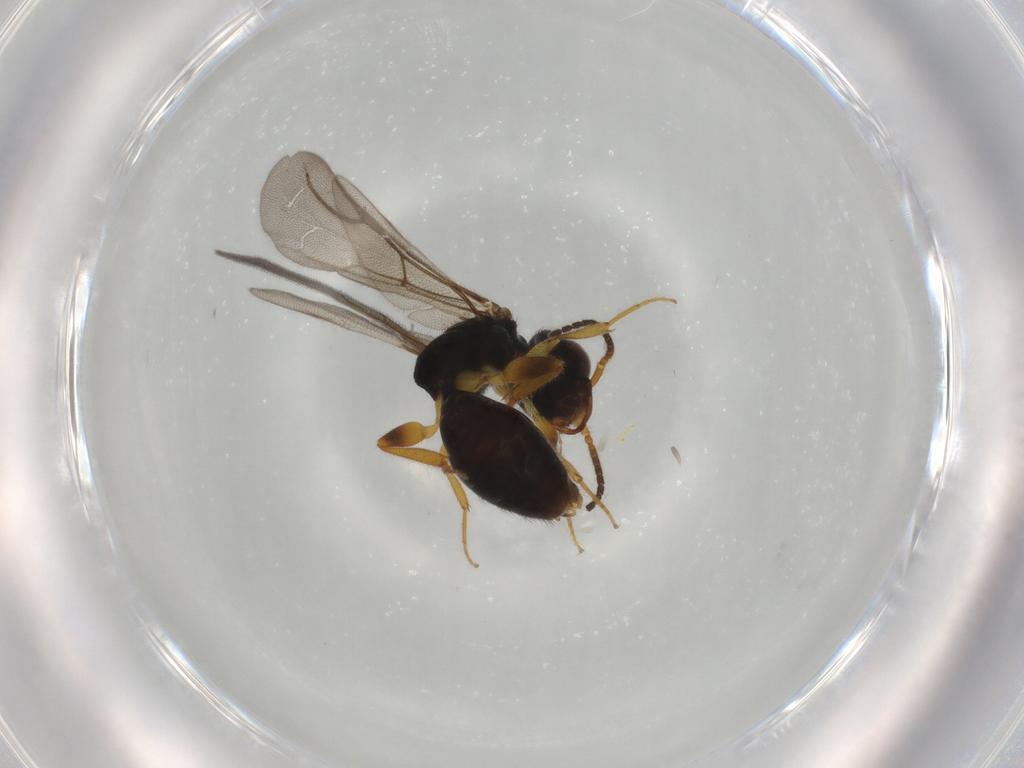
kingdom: Animalia
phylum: Arthropoda
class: Insecta
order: Hymenoptera
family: Bethylidae
